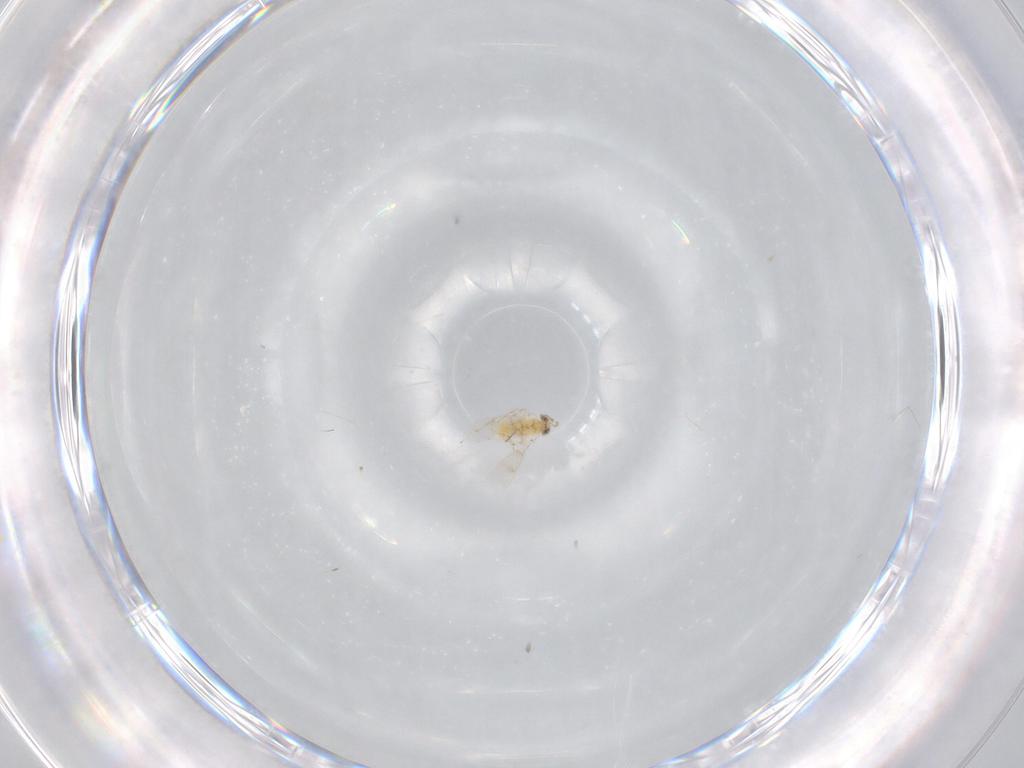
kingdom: Animalia
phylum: Arthropoda
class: Insecta
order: Hymenoptera
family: Aphelinidae
